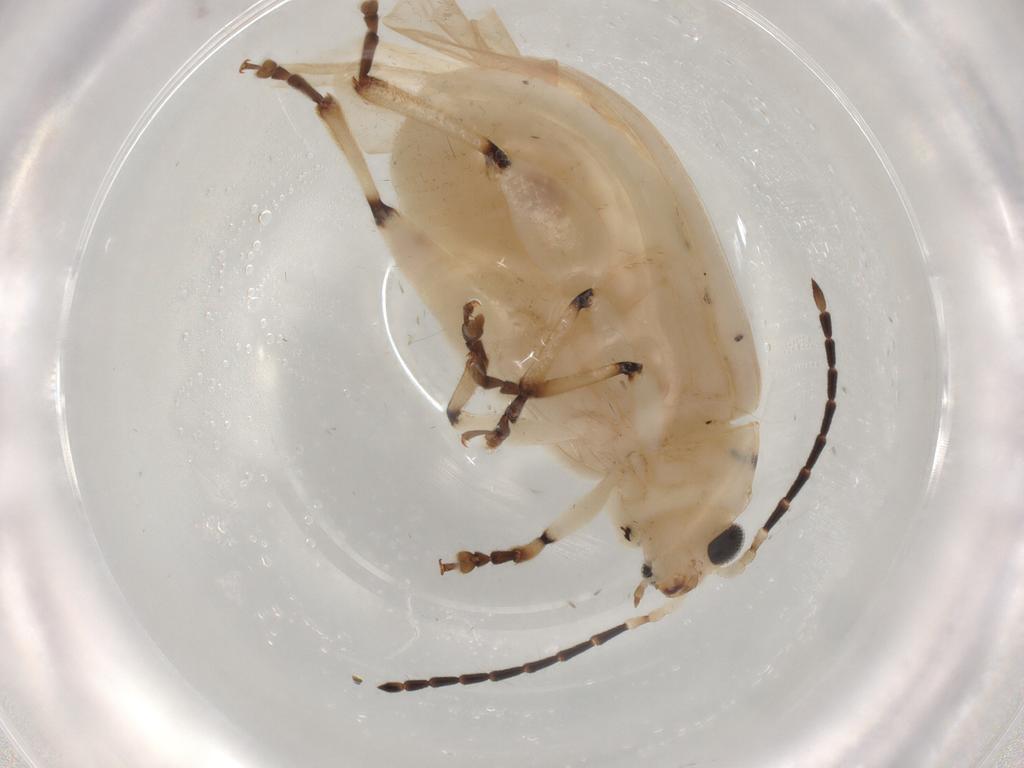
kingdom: Animalia
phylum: Arthropoda
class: Insecta
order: Coleoptera
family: Chrysomelidae
